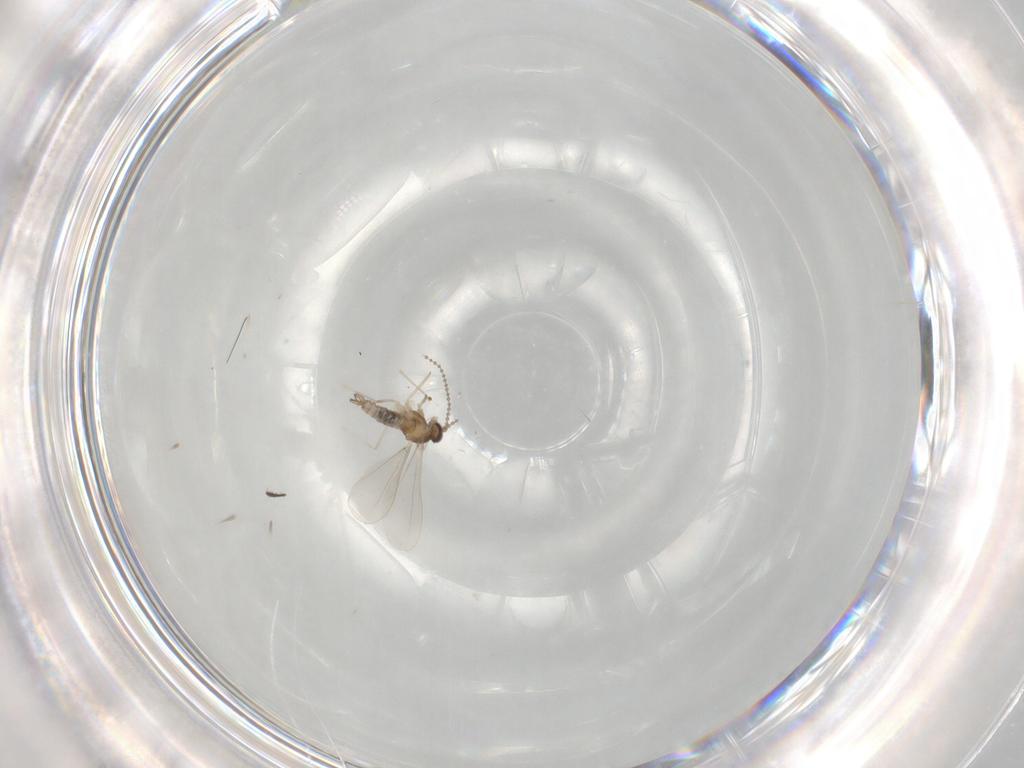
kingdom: Animalia
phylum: Arthropoda
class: Insecta
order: Diptera
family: Empididae
